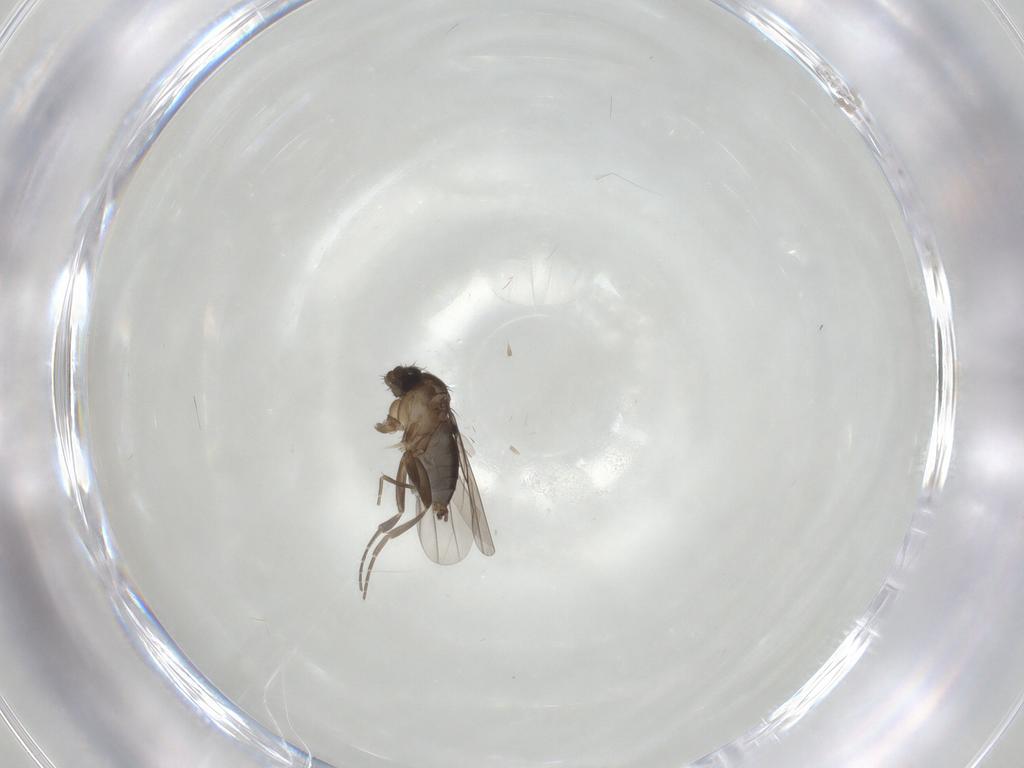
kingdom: Animalia
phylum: Arthropoda
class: Insecta
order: Diptera
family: Phoridae
